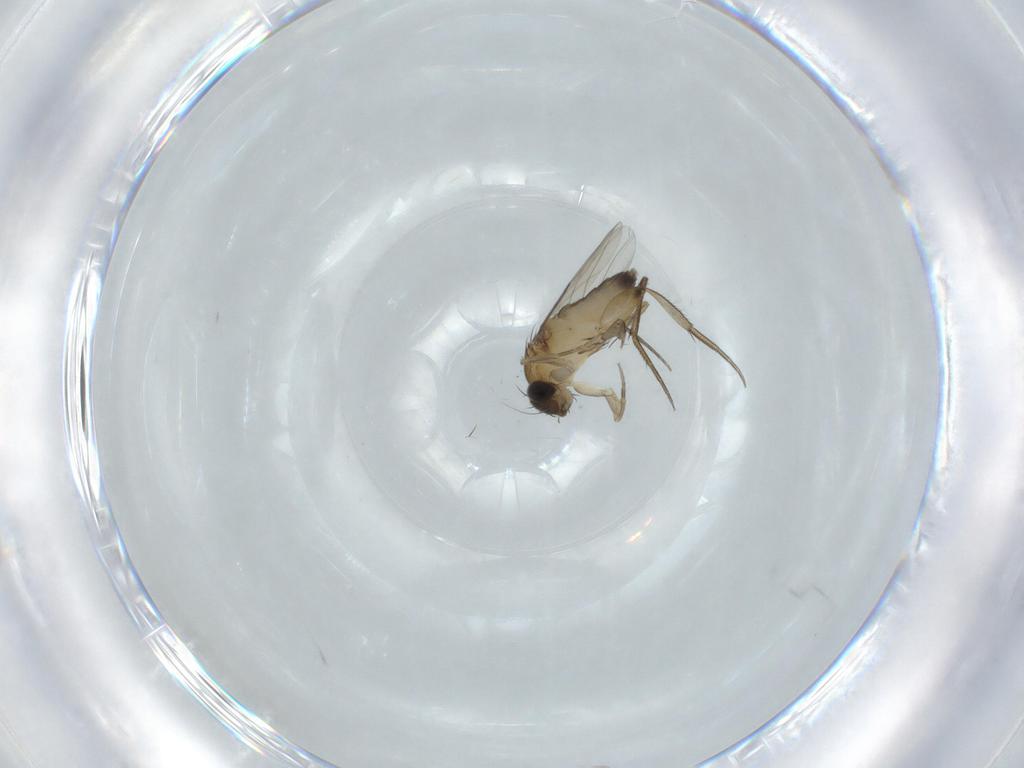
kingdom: Animalia
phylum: Arthropoda
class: Insecta
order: Diptera
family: Phoridae
